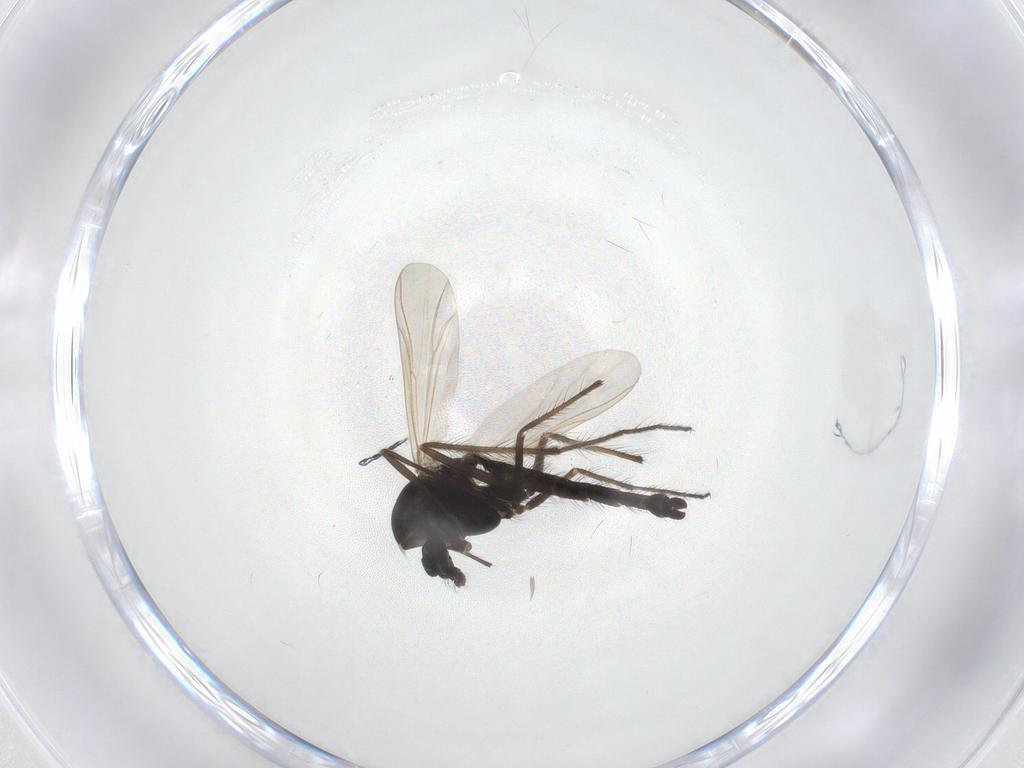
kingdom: Animalia
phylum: Arthropoda
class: Insecta
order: Diptera
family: Chironomidae
